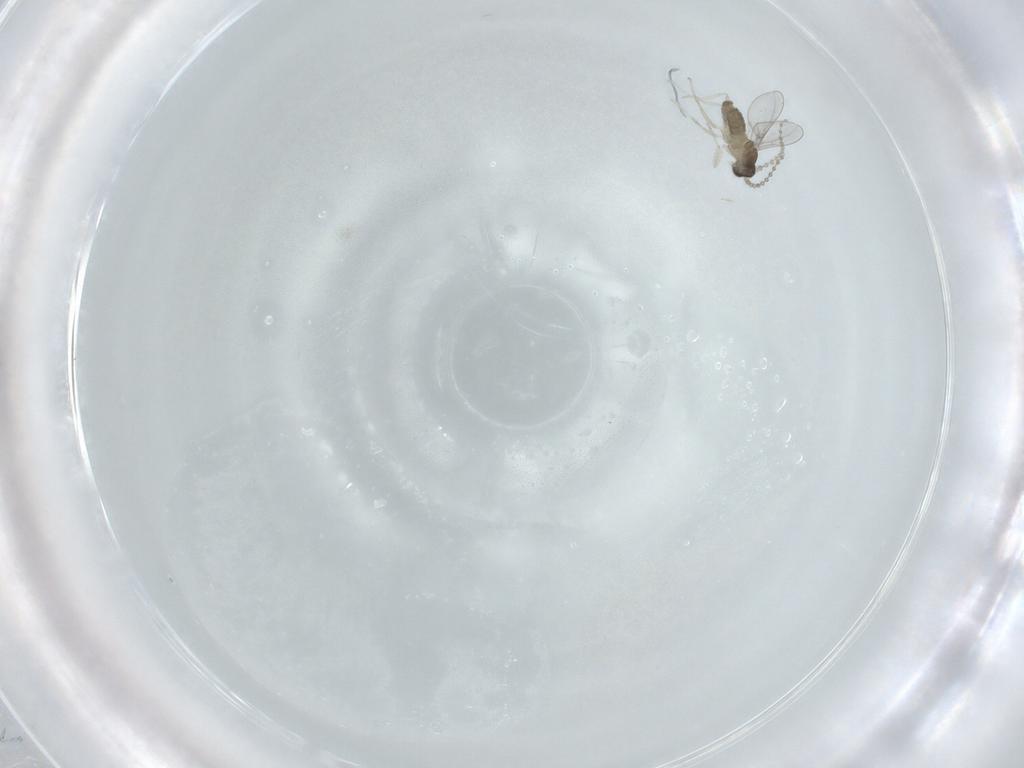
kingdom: Animalia
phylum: Arthropoda
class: Insecta
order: Diptera
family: Cecidomyiidae
